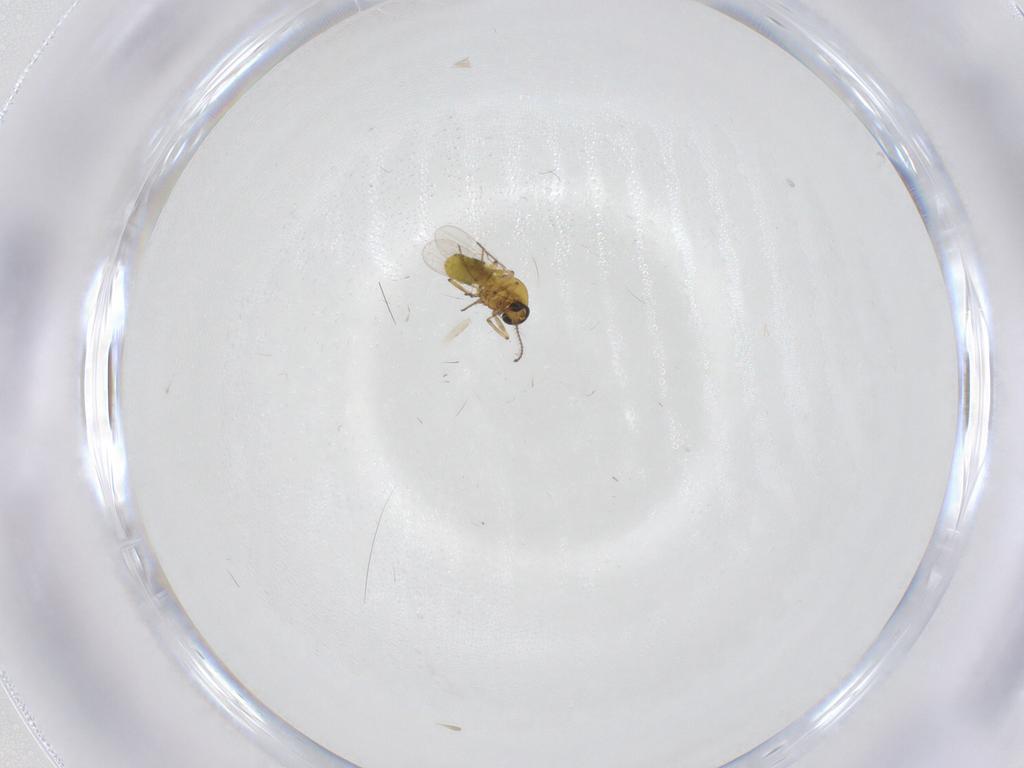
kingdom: Animalia
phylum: Arthropoda
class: Insecta
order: Diptera
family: Ceratopogonidae
